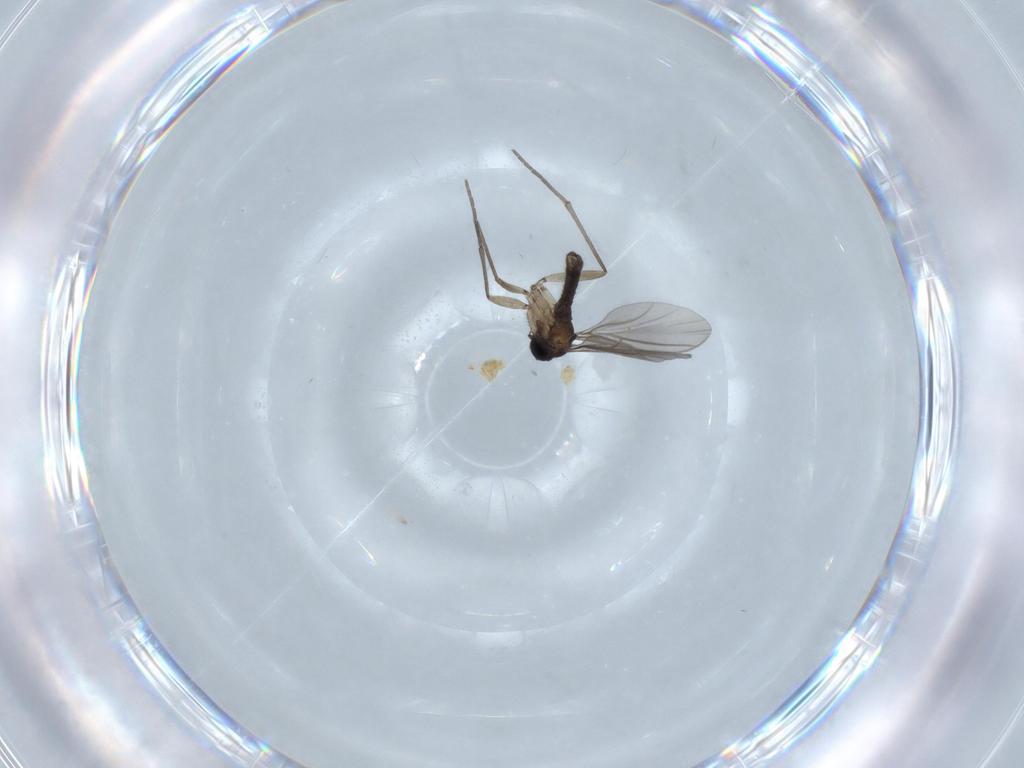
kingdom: Animalia
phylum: Arthropoda
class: Insecta
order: Diptera
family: Sciaridae
